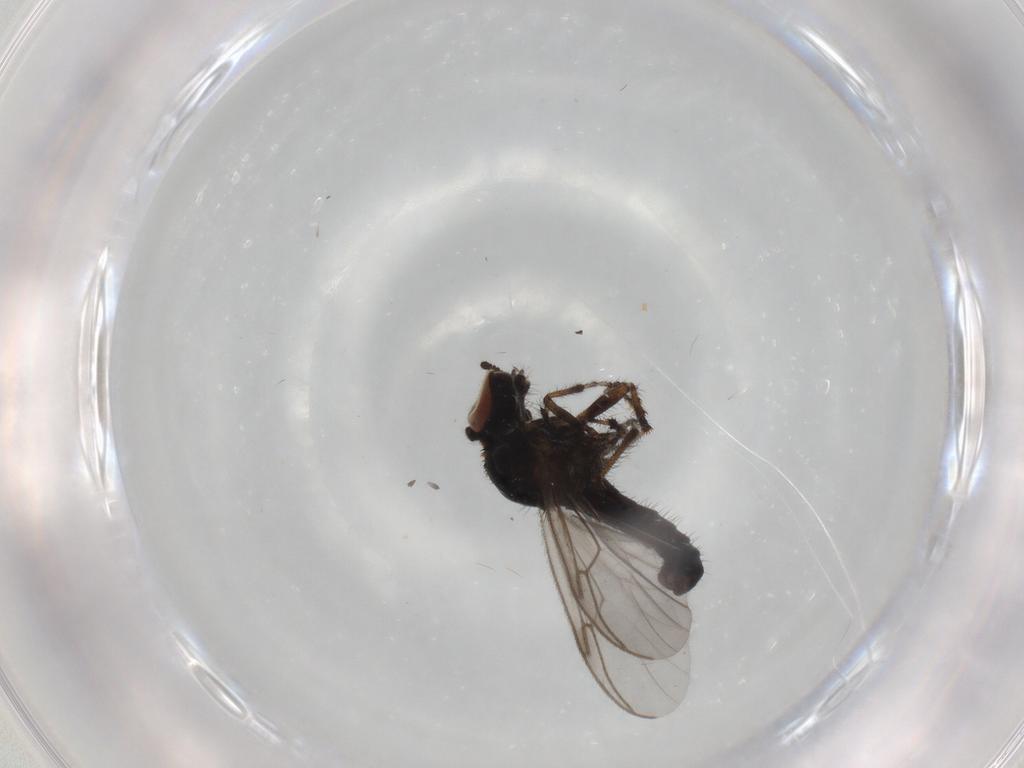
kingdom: Animalia
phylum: Arthropoda
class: Insecta
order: Diptera
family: Bibionidae
